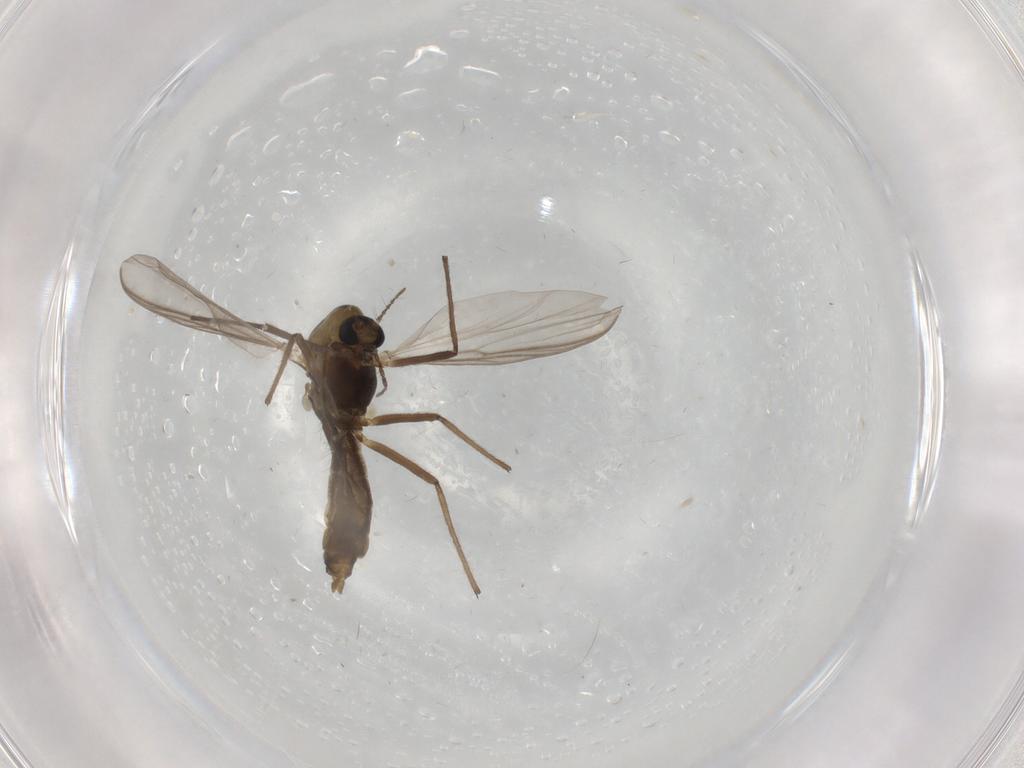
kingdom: Animalia
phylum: Arthropoda
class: Insecta
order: Diptera
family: Chironomidae
